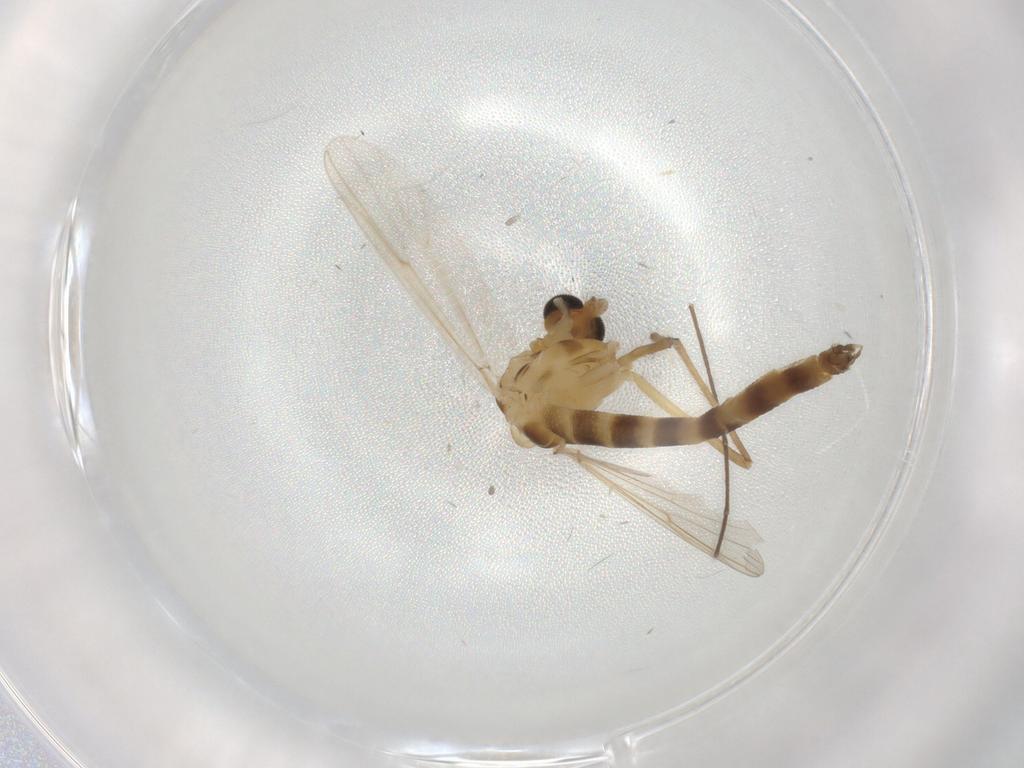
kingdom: Animalia
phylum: Arthropoda
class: Insecta
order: Diptera
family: Chironomidae
